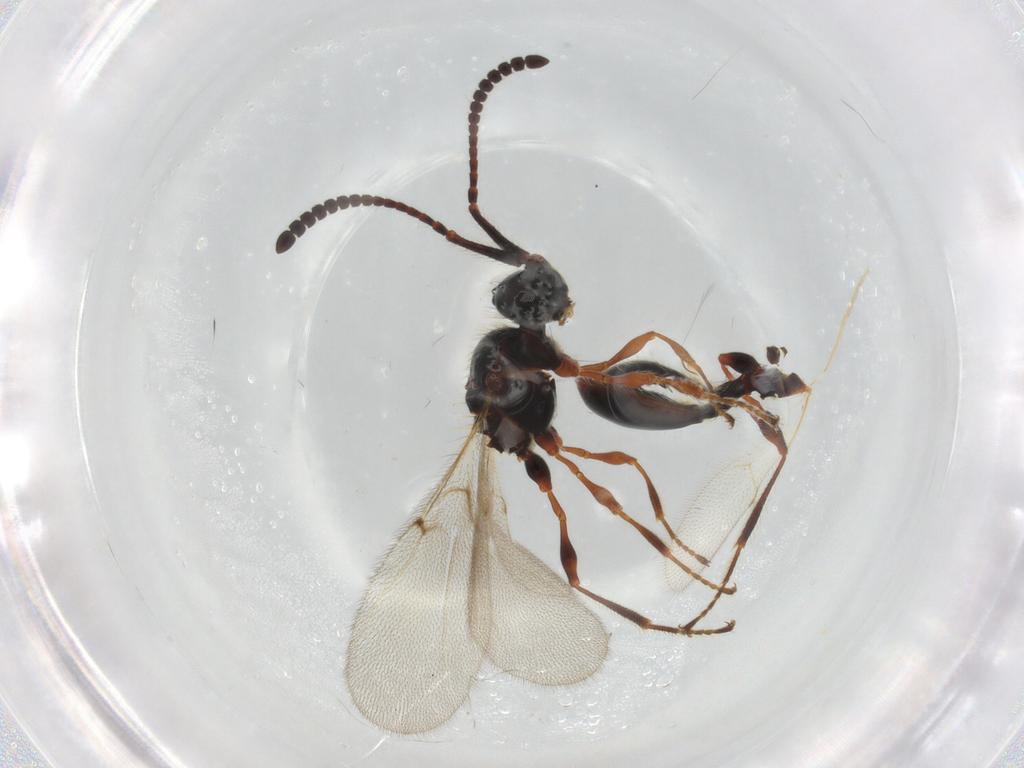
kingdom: Animalia
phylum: Arthropoda
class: Insecta
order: Hymenoptera
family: Diapriidae
